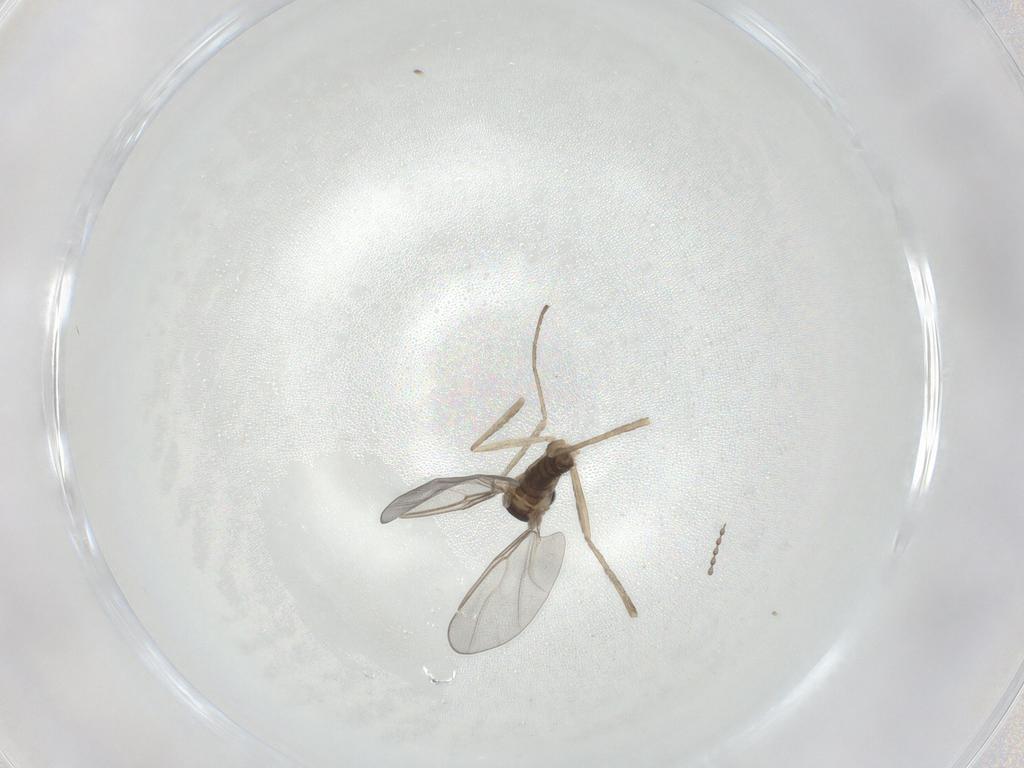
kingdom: Animalia
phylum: Arthropoda
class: Insecta
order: Diptera
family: Cecidomyiidae
